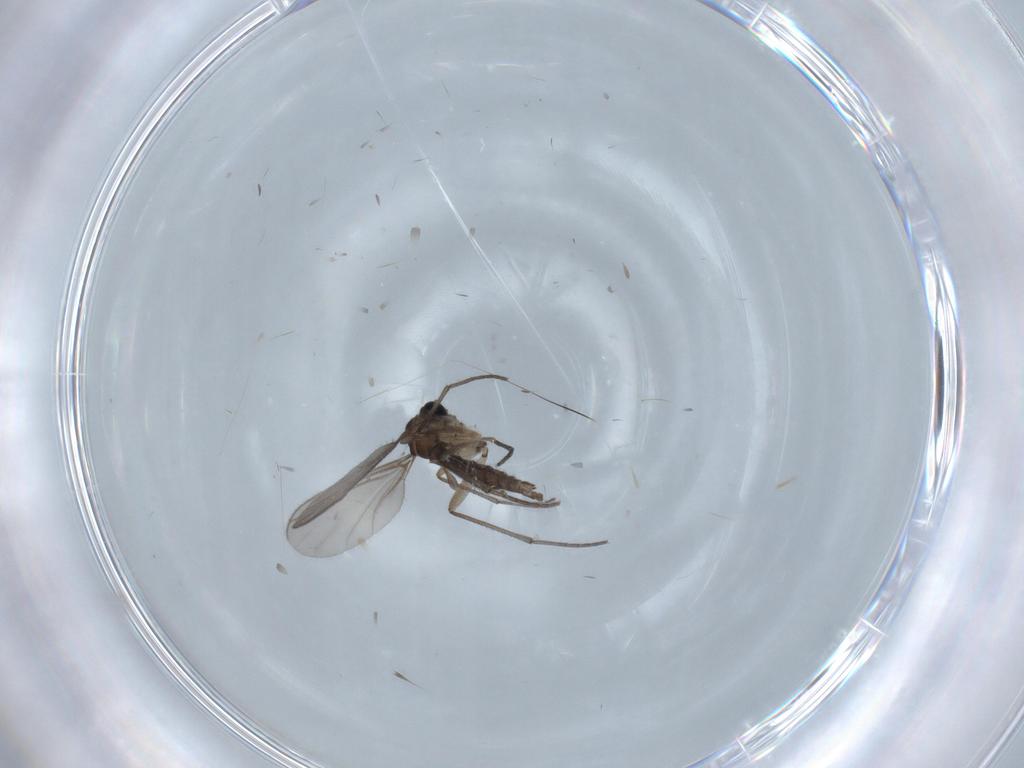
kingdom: Animalia
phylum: Arthropoda
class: Insecta
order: Diptera
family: Sciaridae
